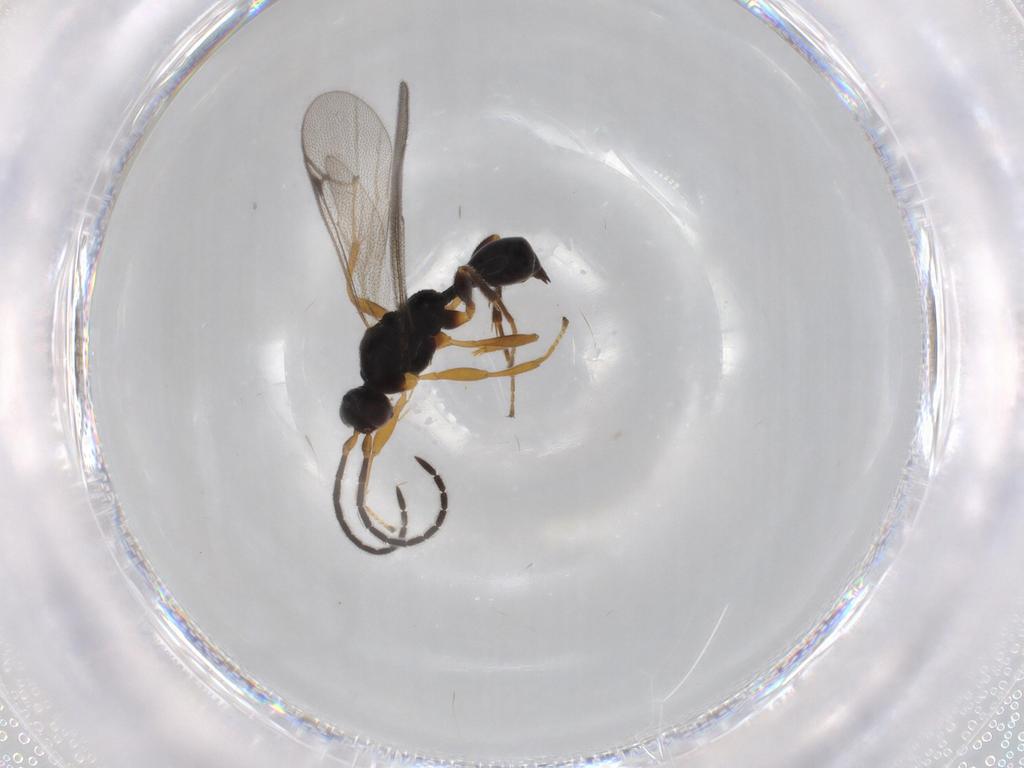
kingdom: Animalia
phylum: Arthropoda
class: Insecta
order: Hymenoptera
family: Proctotrupidae
